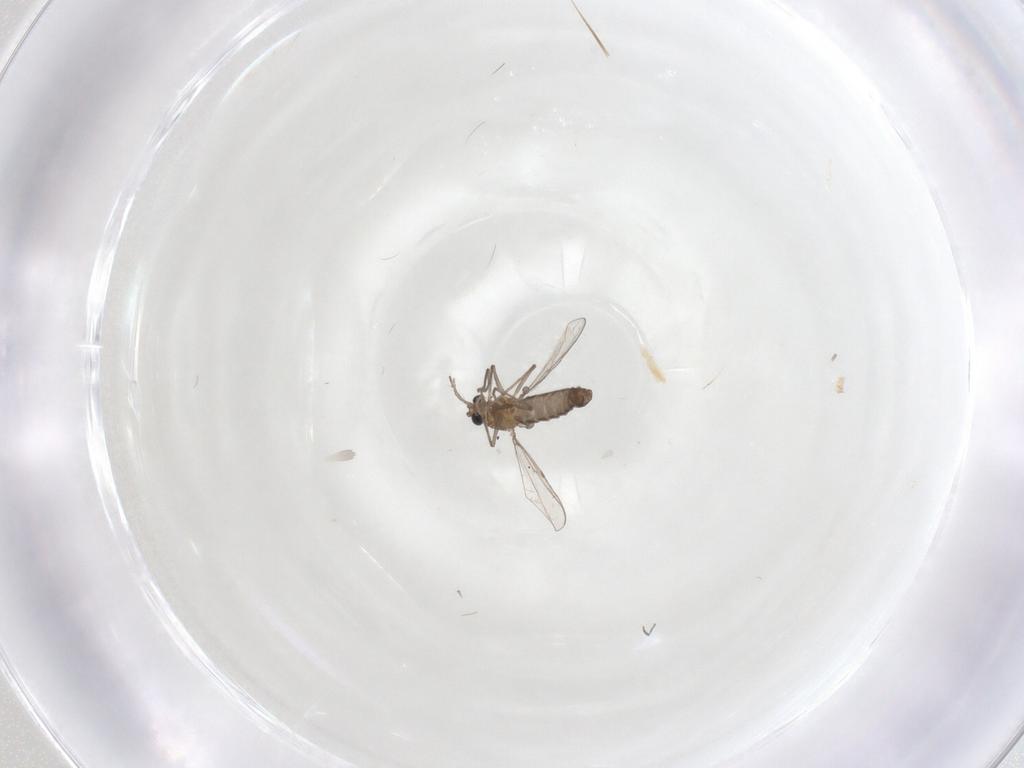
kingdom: Animalia
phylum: Arthropoda
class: Insecta
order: Diptera
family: Chironomidae
